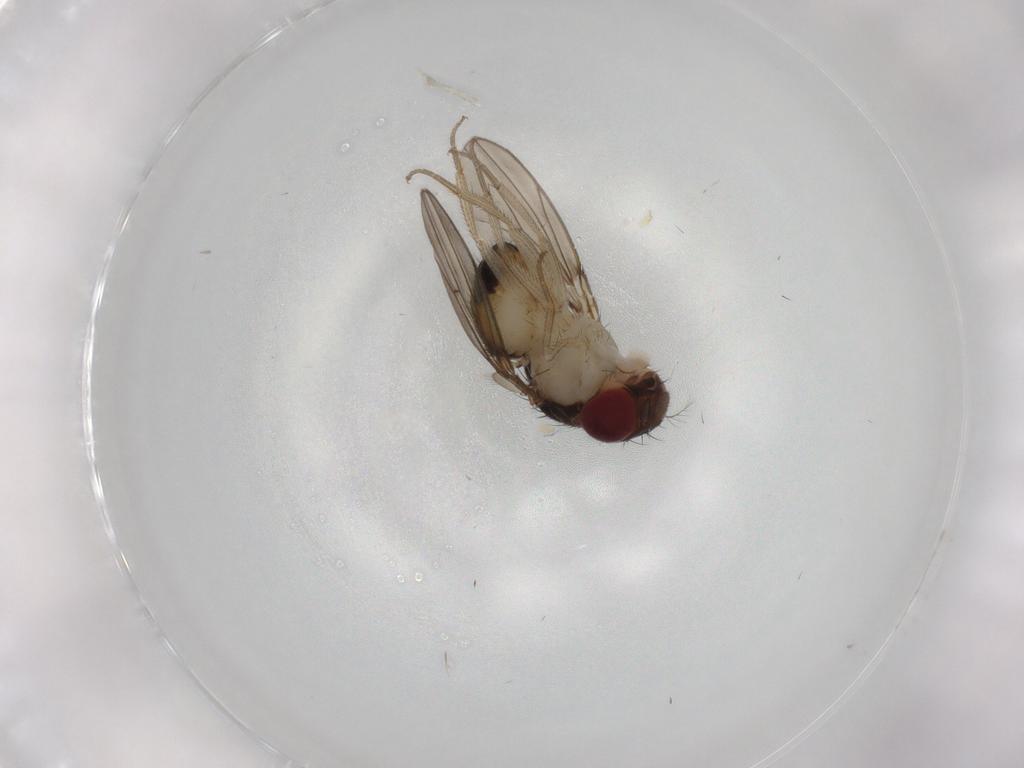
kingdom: Animalia
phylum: Arthropoda
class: Insecta
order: Diptera
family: Drosophilidae
